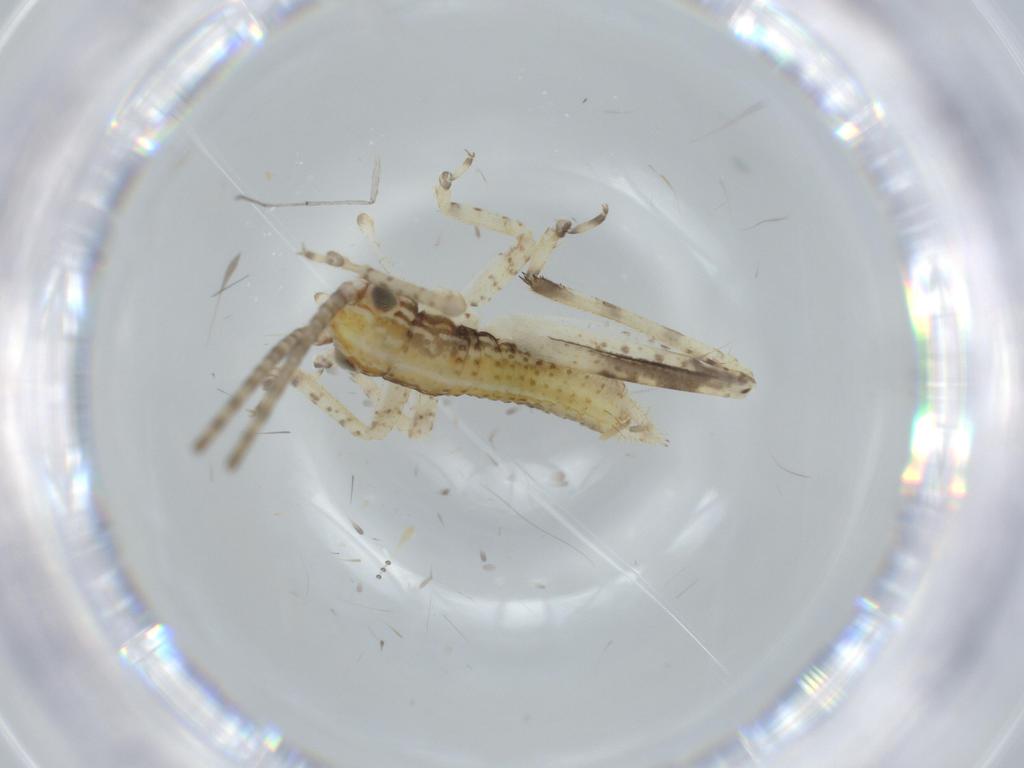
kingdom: Animalia
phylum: Arthropoda
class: Insecta
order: Orthoptera
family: Gryllidae
